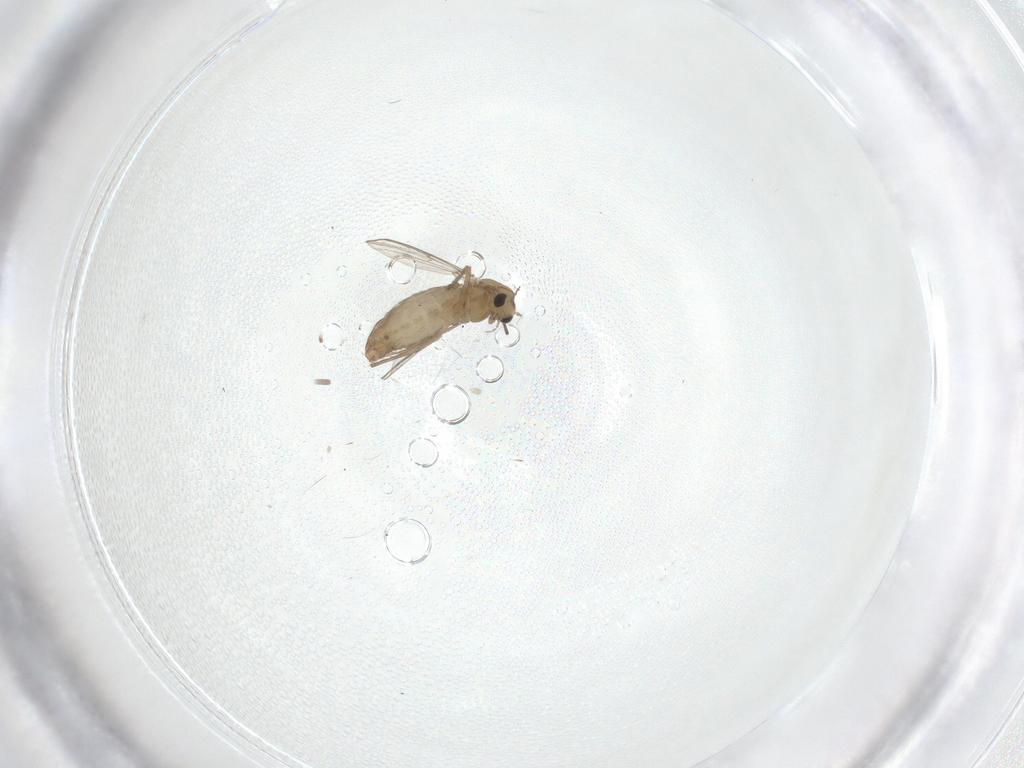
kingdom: Animalia
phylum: Arthropoda
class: Insecta
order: Diptera
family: Chironomidae
